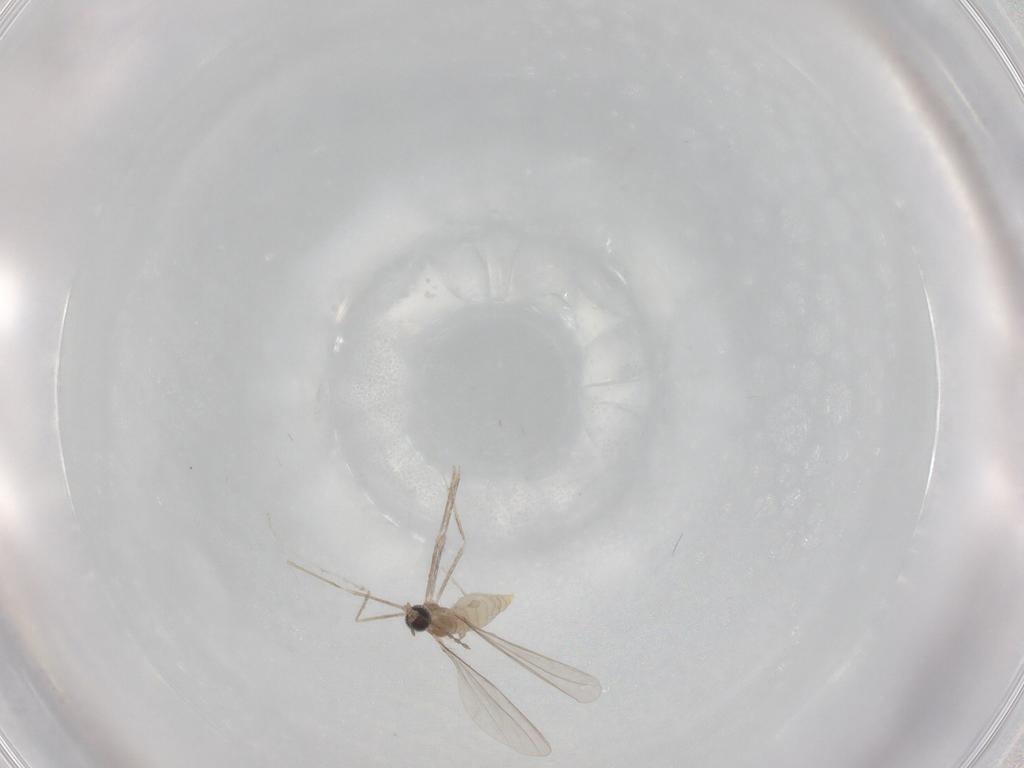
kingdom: Animalia
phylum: Arthropoda
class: Insecta
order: Diptera
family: Cecidomyiidae
